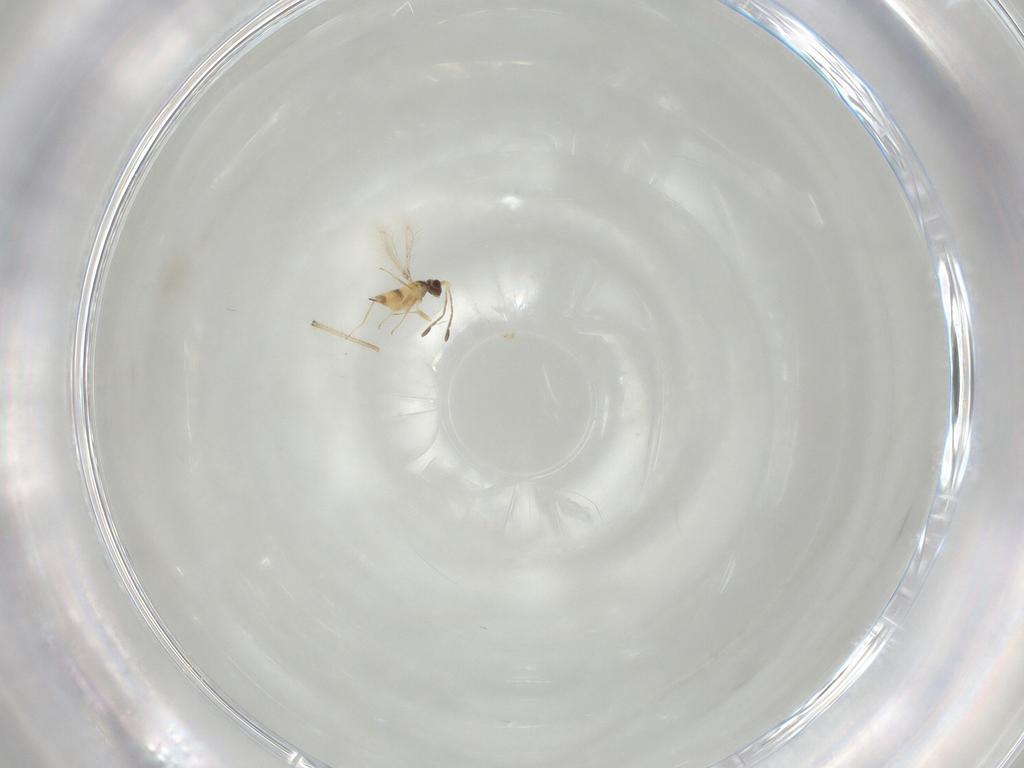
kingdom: Animalia
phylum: Arthropoda
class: Insecta
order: Hymenoptera
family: Mymaridae
